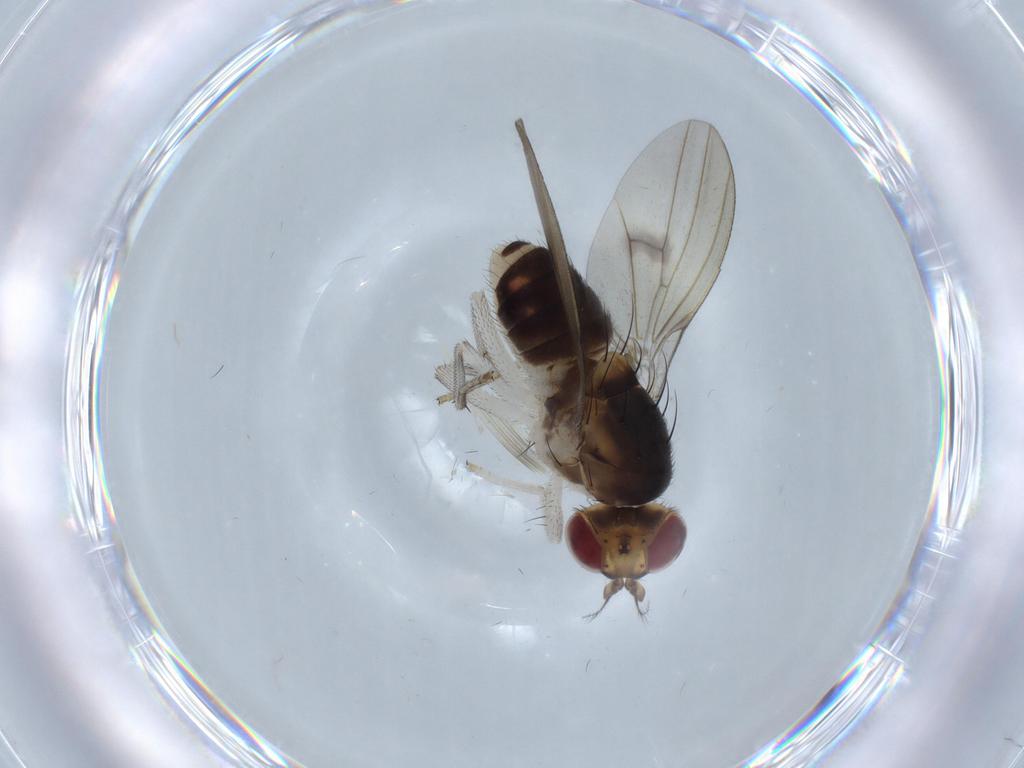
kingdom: Animalia
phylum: Arthropoda
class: Insecta
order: Diptera
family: Lauxaniidae
